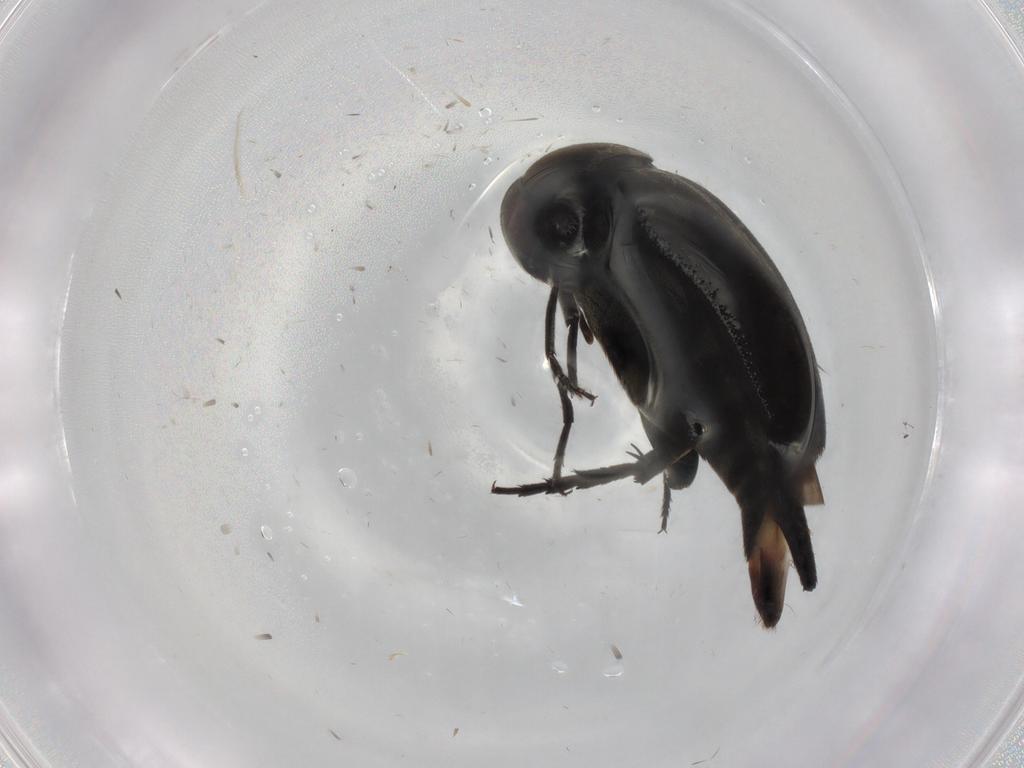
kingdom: Animalia
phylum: Arthropoda
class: Insecta
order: Coleoptera
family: Mordellidae
